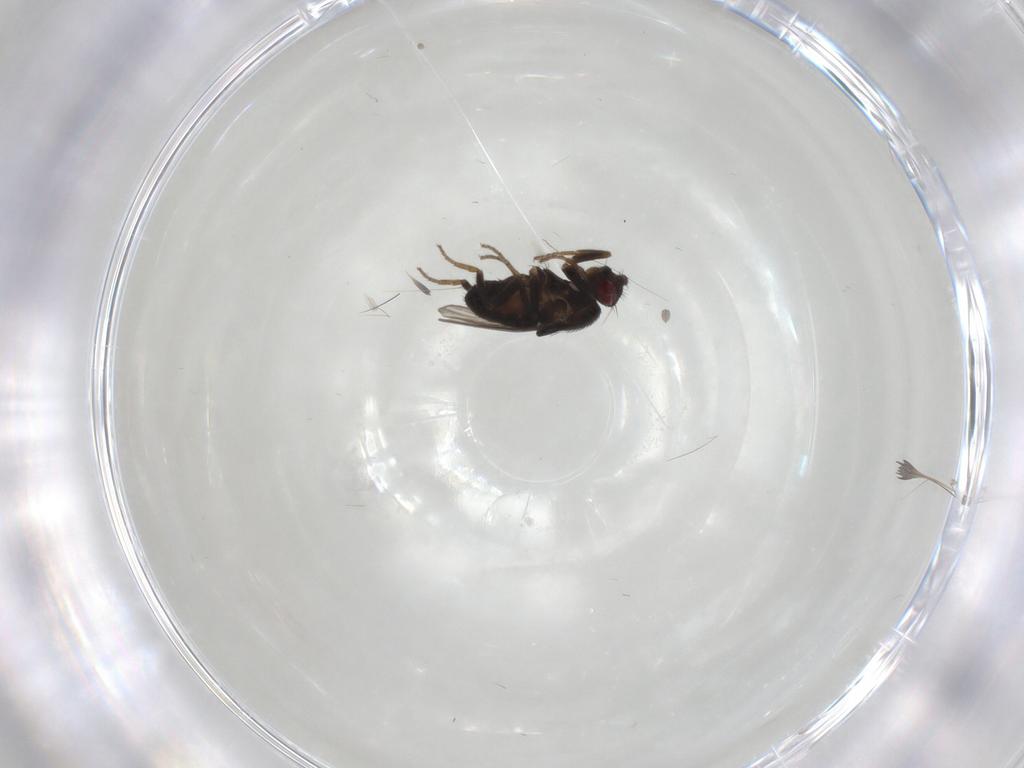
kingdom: Animalia
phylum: Arthropoda
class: Insecta
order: Diptera
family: Sphaeroceridae
